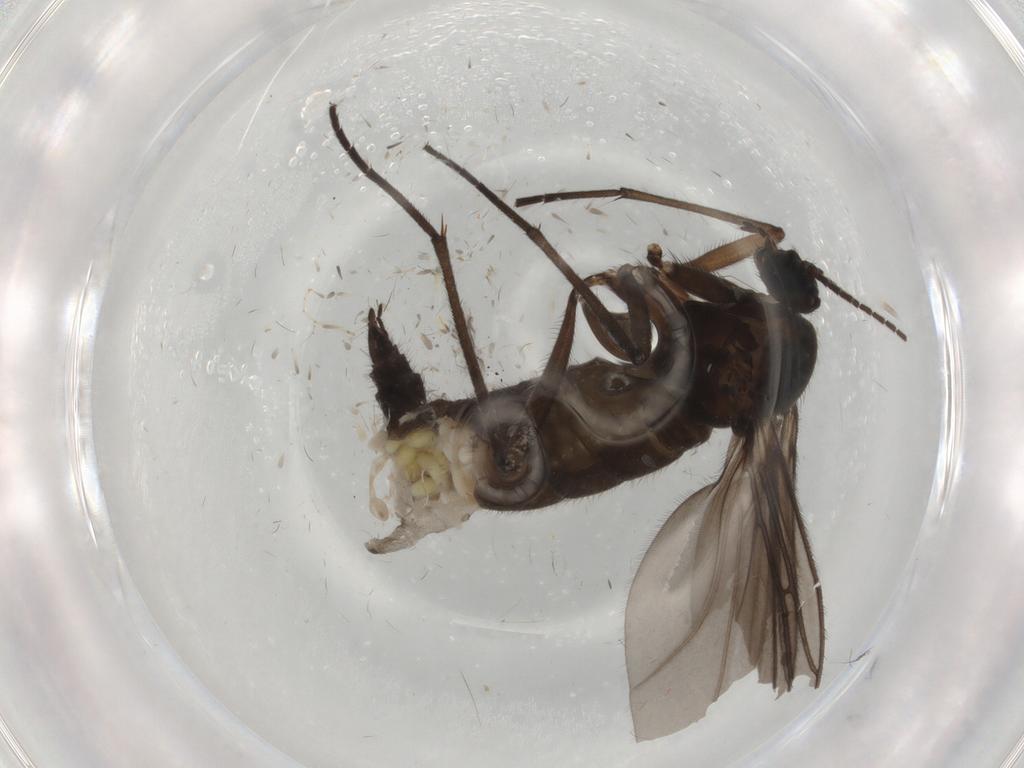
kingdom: Animalia
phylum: Arthropoda
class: Insecta
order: Diptera
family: Sciaridae
